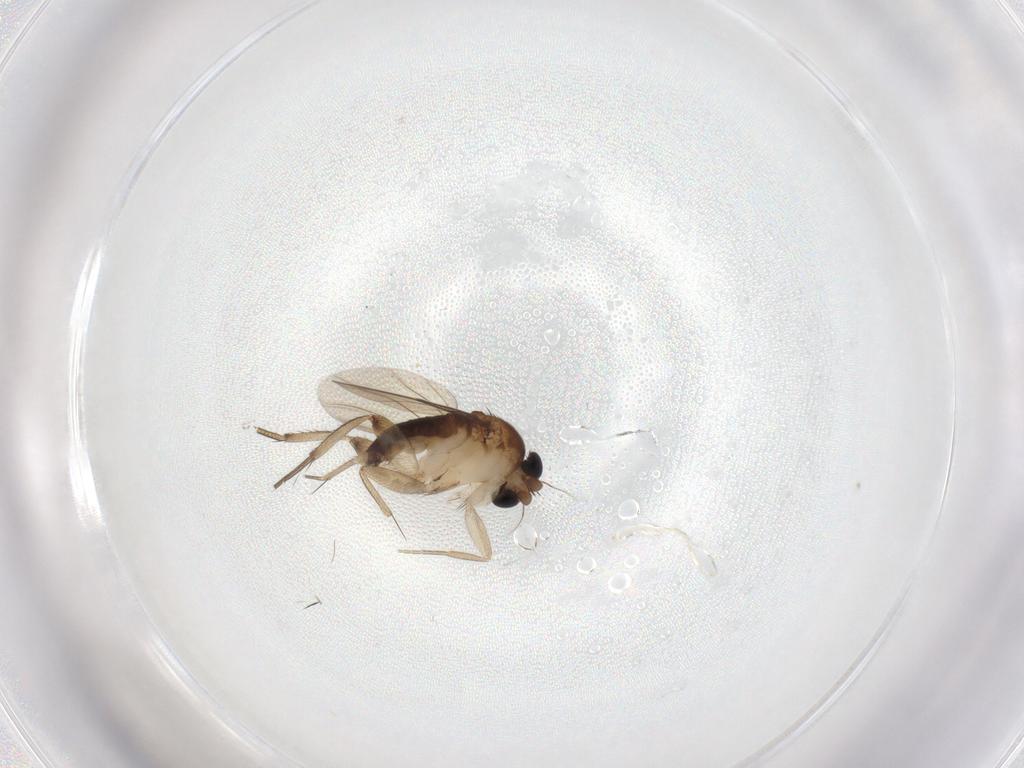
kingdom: Animalia
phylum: Arthropoda
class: Insecta
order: Diptera
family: Phoridae
